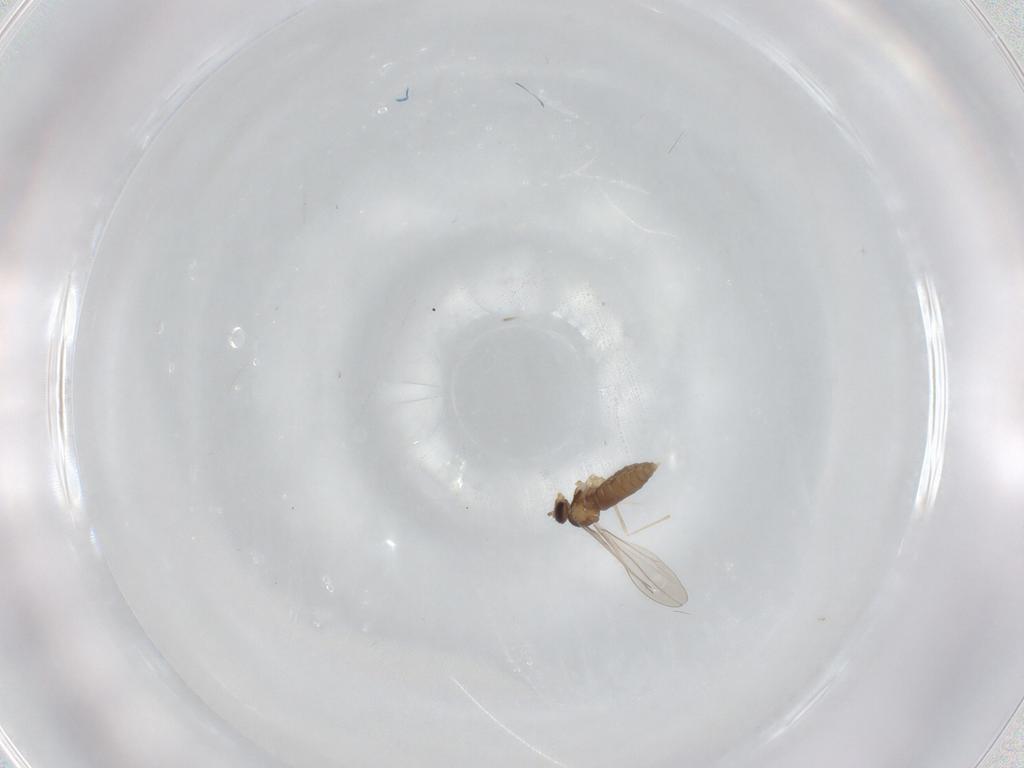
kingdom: Animalia
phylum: Arthropoda
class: Insecta
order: Diptera
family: Cecidomyiidae
